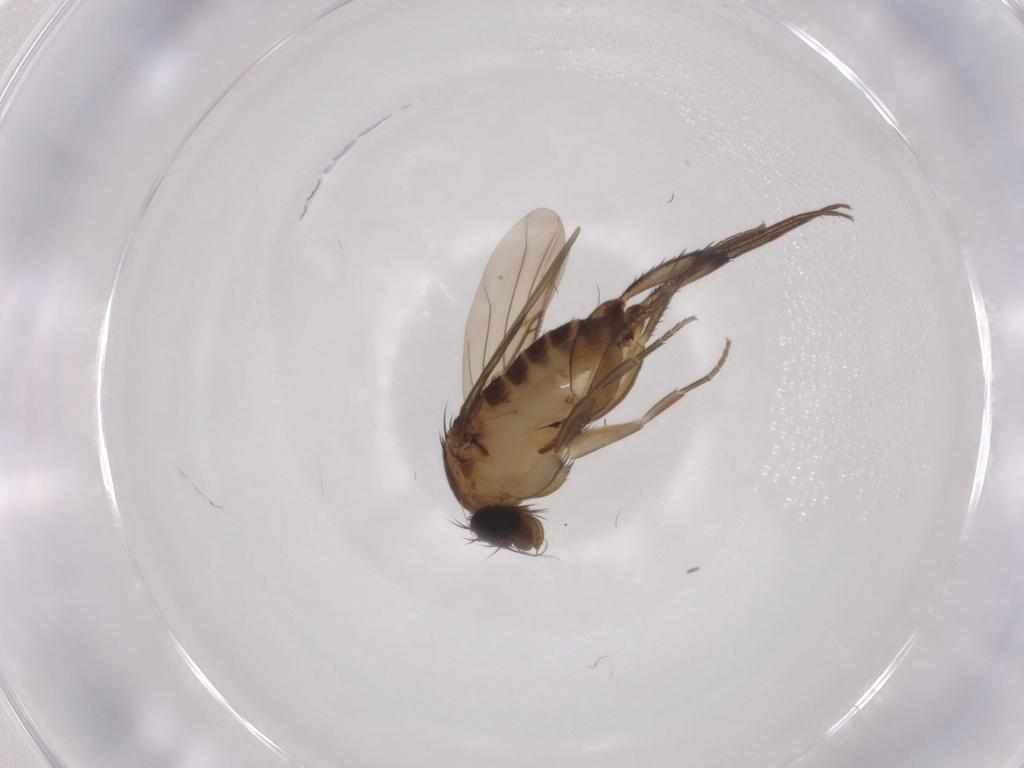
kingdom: Animalia
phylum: Arthropoda
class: Insecta
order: Diptera
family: Phoridae
